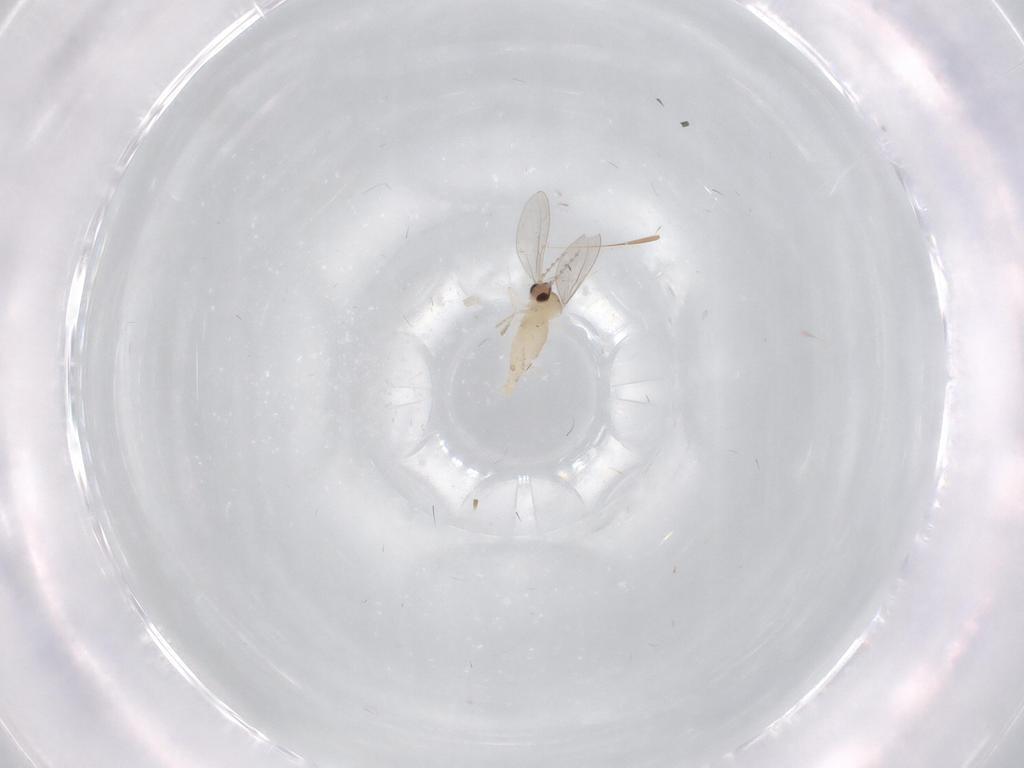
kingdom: Animalia
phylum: Arthropoda
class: Insecta
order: Diptera
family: Cecidomyiidae
